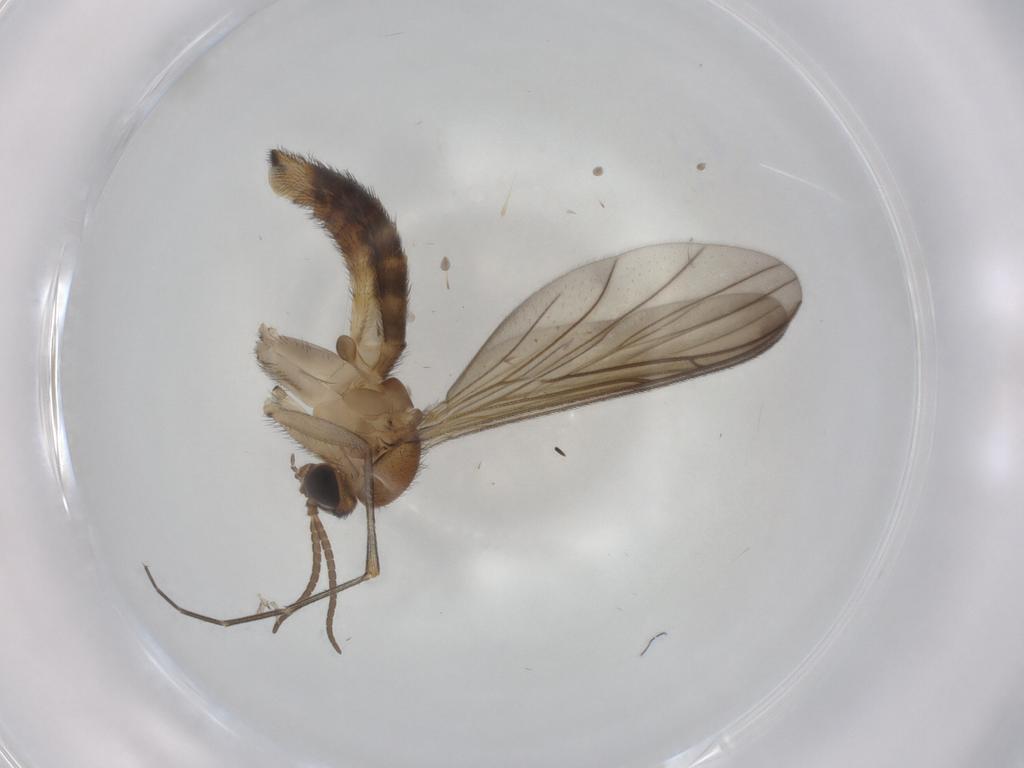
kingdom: Animalia
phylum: Arthropoda
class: Insecta
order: Diptera
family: Keroplatidae
